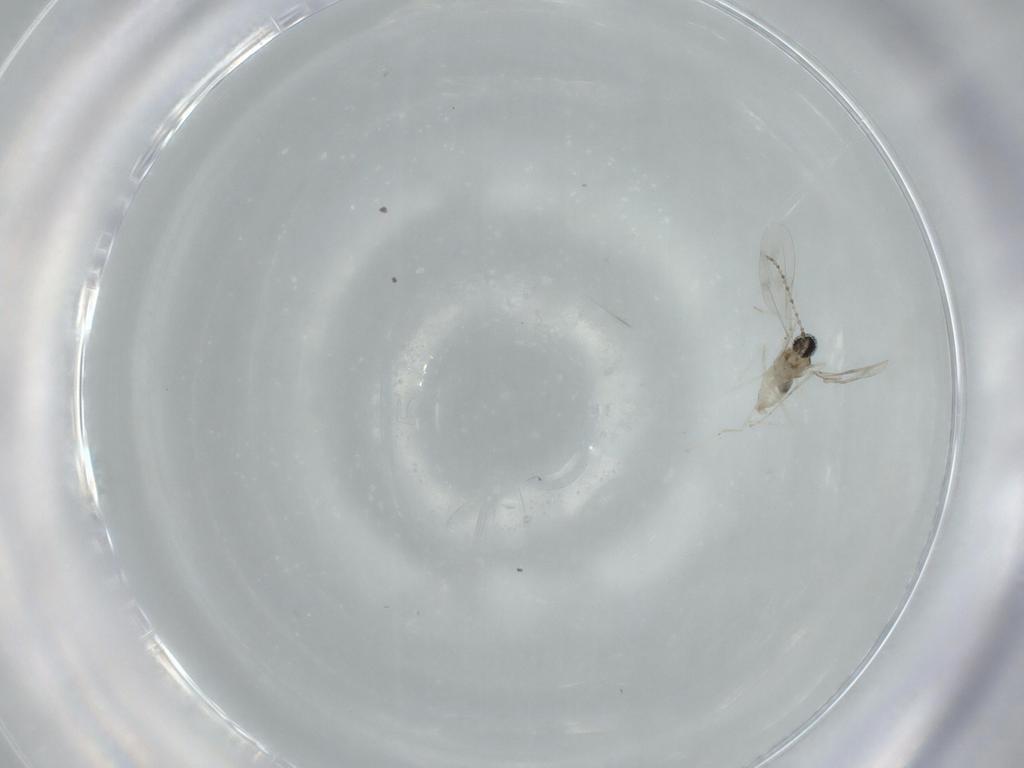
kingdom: Animalia
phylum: Arthropoda
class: Insecta
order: Diptera
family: Cecidomyiidae
